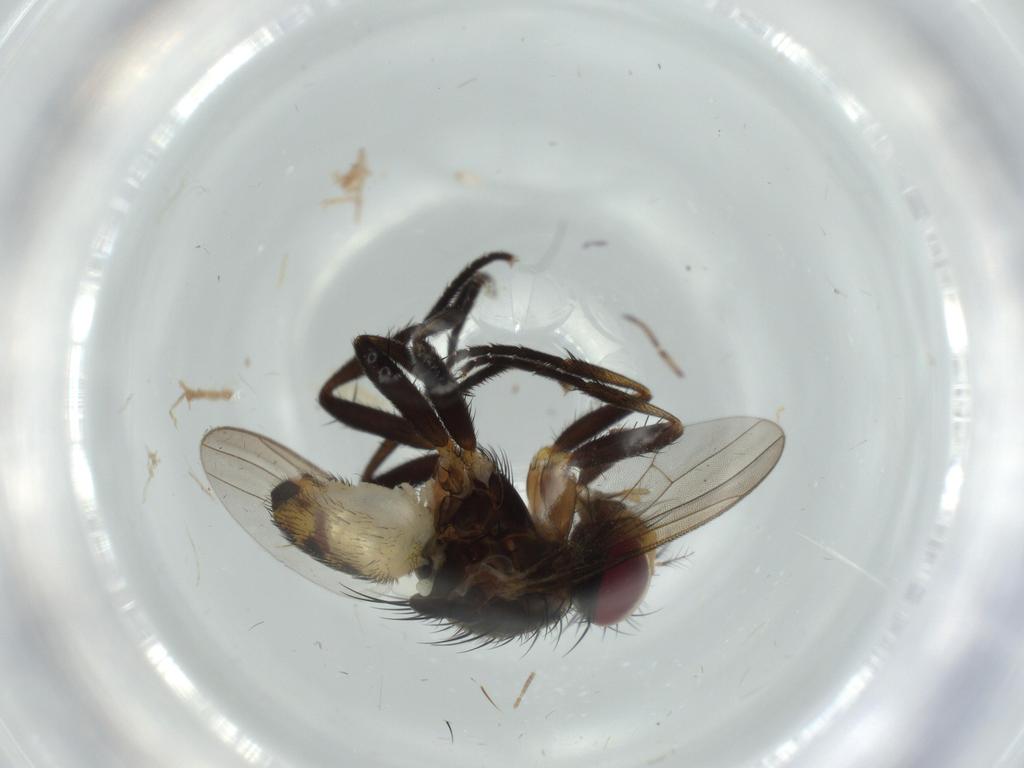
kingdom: Animalia
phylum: Arthropoda
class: Insecta
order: Diptera
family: Anthomyiidae
